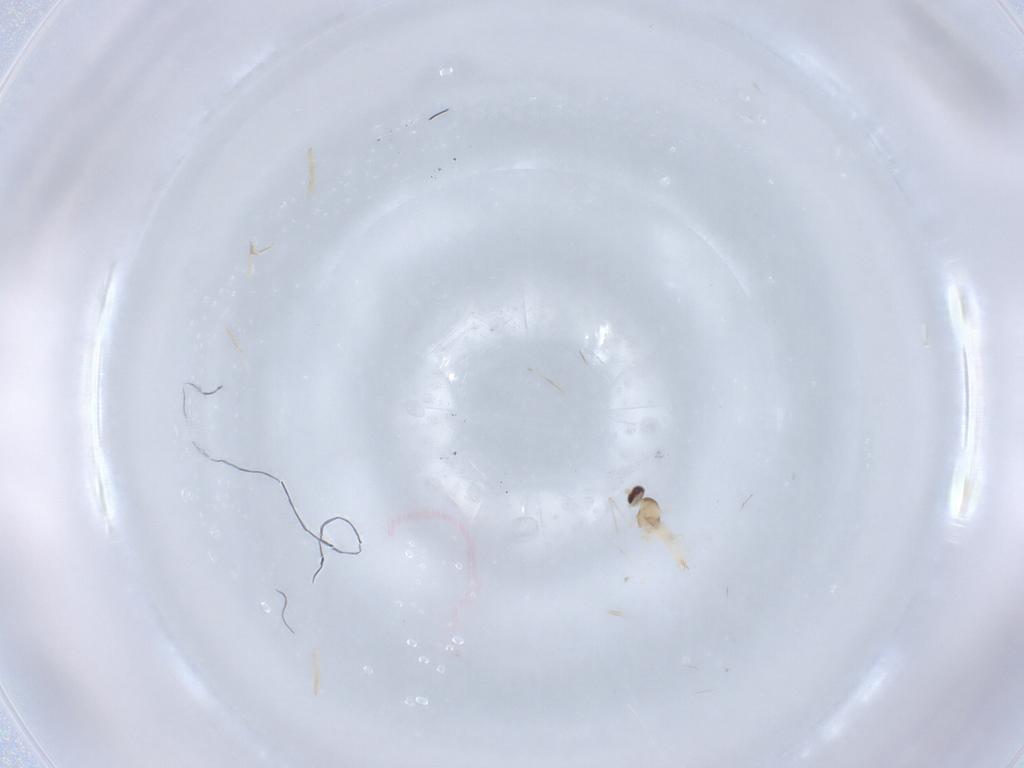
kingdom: Animalia
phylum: Arthropoda
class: Insecta
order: Diptera
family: Cecidomyiidae
